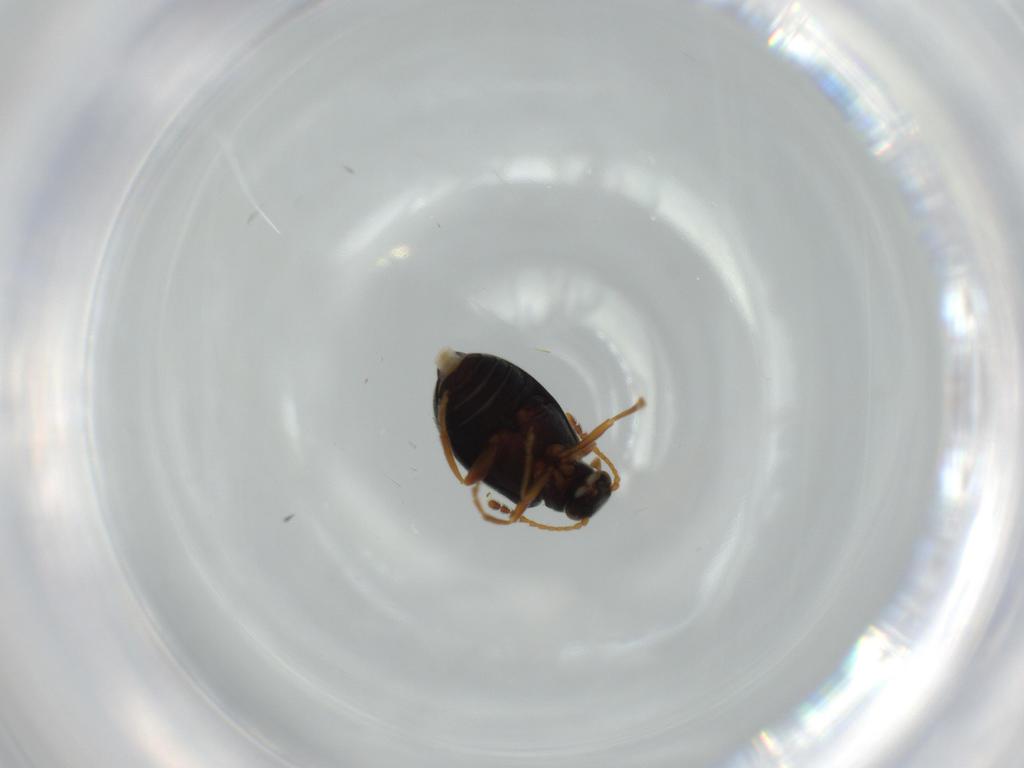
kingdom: Animalia
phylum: Arthropoda
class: Insecta
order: Coleoptera
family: Aderidae
